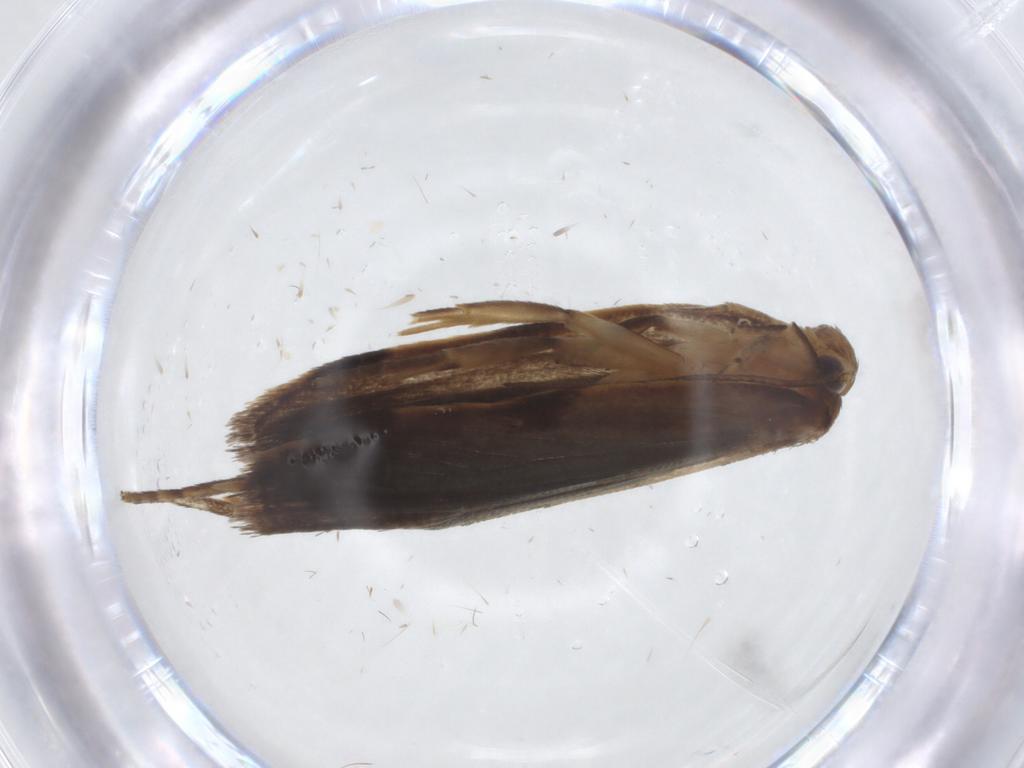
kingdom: Animalia
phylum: Arthropoda
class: Insecta
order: Lepidoptera
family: Depressariidae
